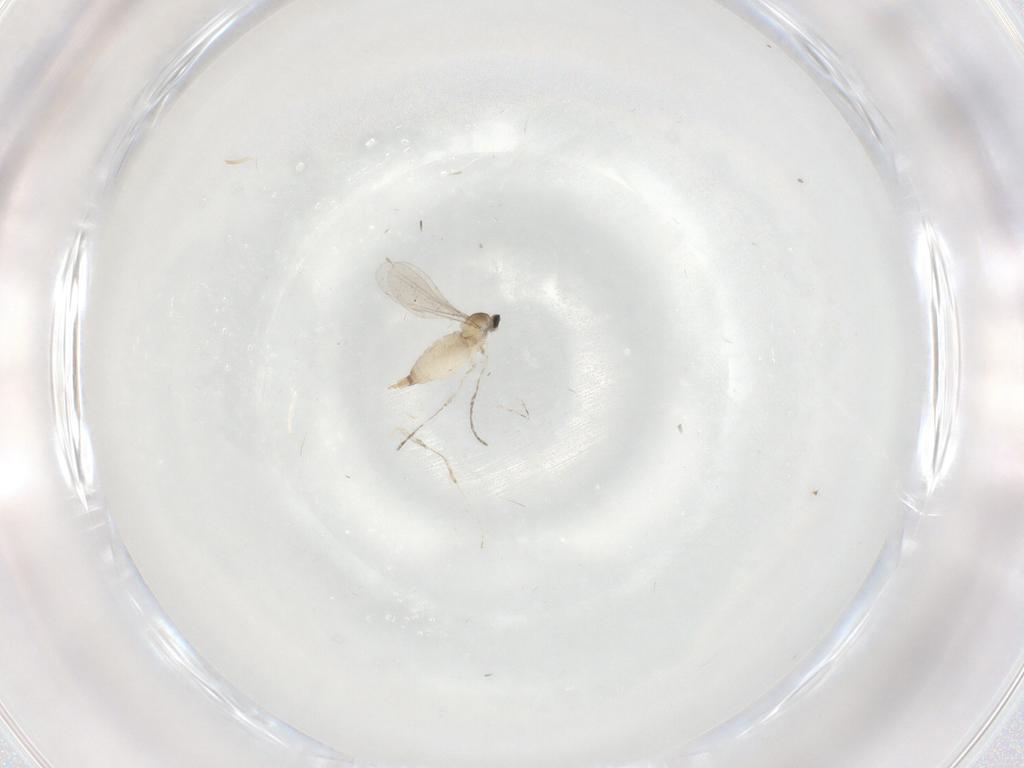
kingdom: Animalia
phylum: Arthropoda
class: Insecta
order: Diptera
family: Cecidomyiidae
